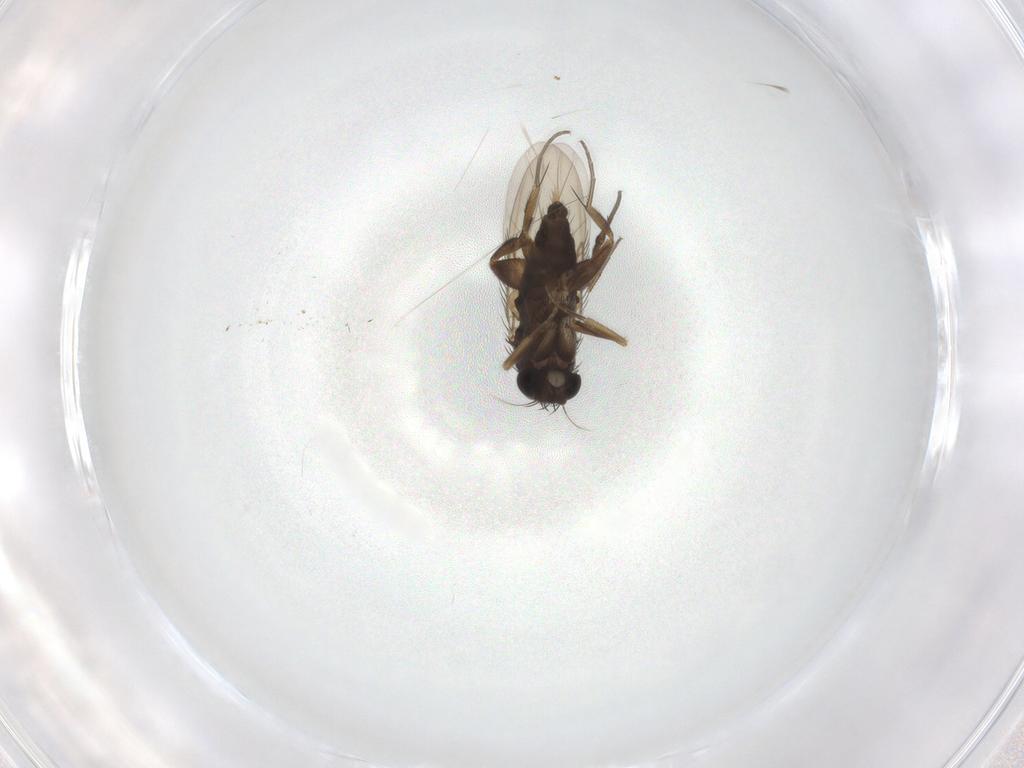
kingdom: Animalia
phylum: Arthropoda
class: Insecta
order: Diptera
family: Phoridae
